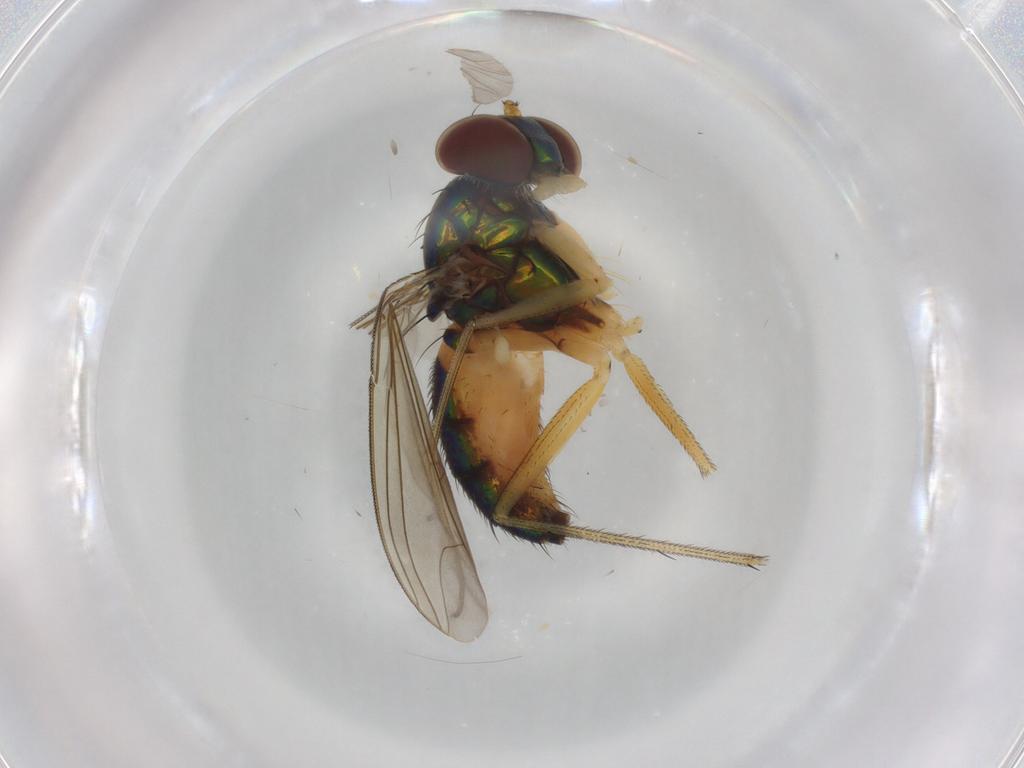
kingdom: Animalia
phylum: Arthropoda
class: Insecta
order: Diptera
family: Dolichopodidae
